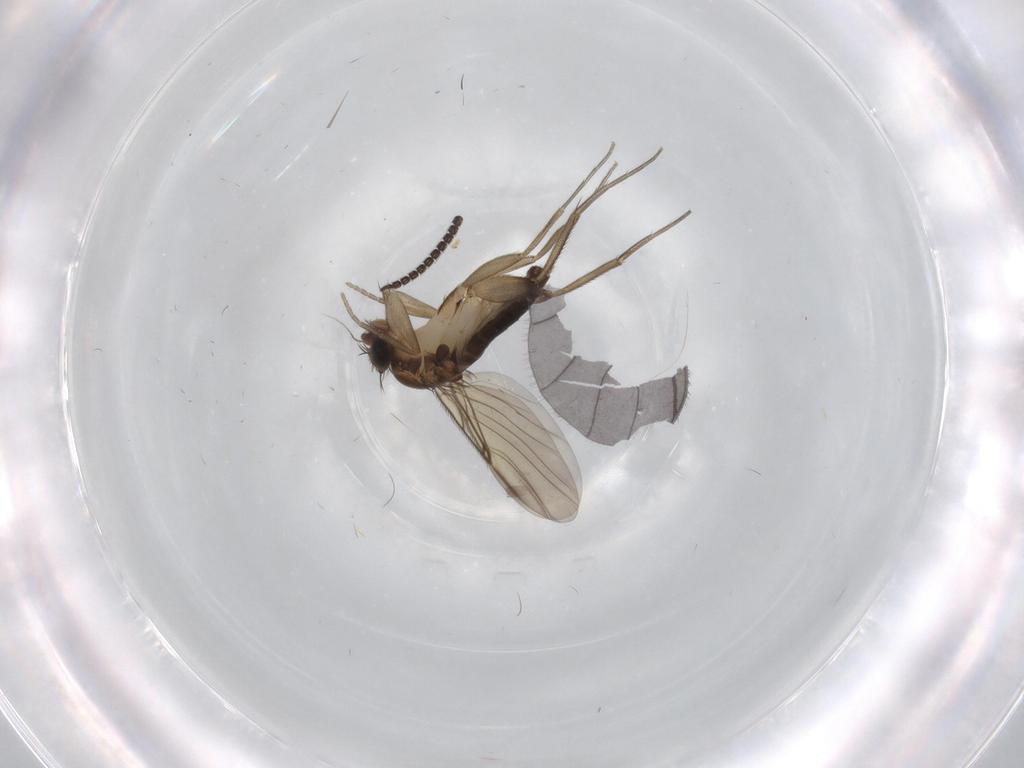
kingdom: Animalia
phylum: Arthropoda
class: Insecta
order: Diptera
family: Phoridae
